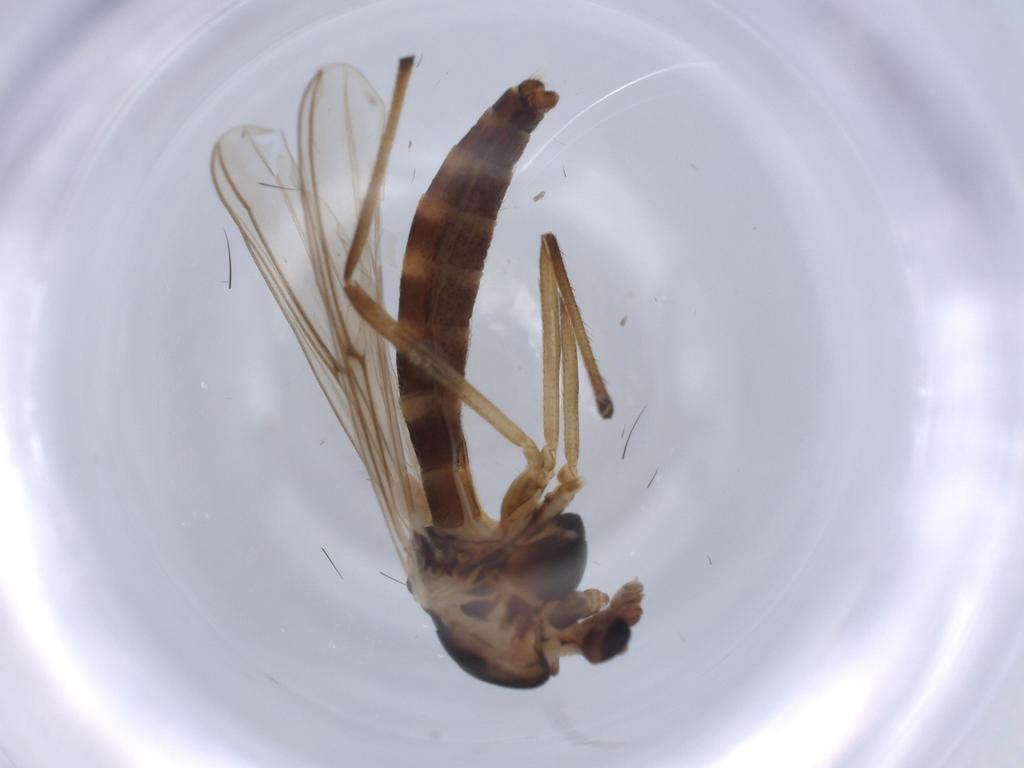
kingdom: Animalia
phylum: Arthropoda
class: Insecta
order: Diptera
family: Chironomidae
